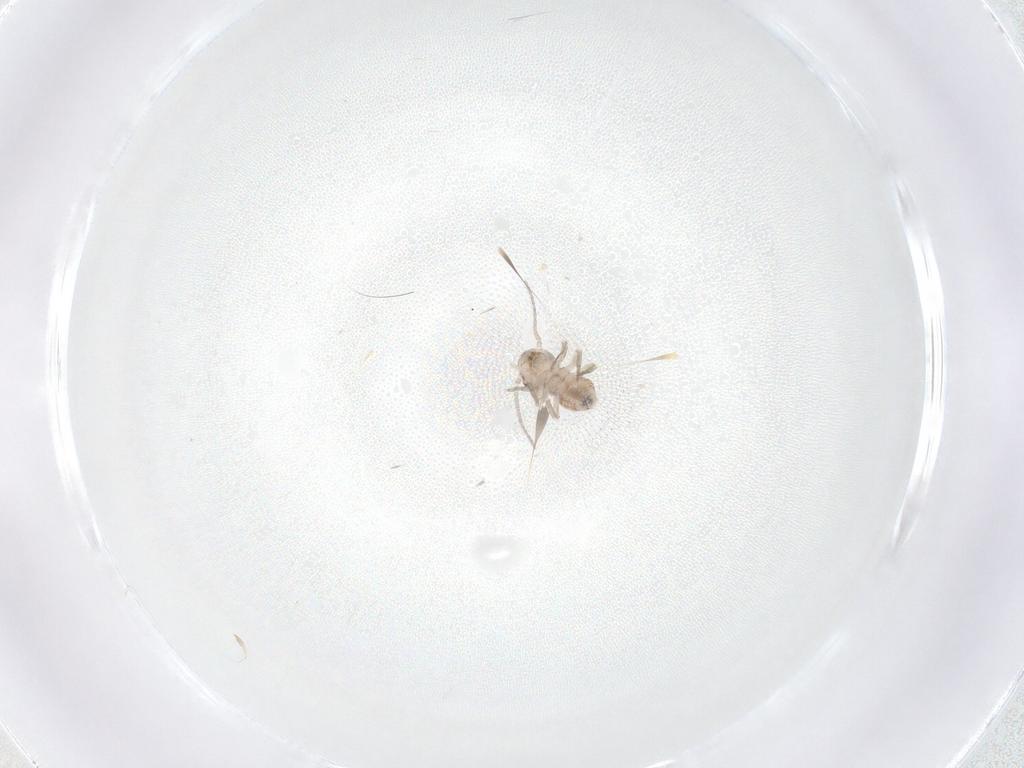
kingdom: Animalia
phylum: Arthropoda
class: Insecta
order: Psocodea
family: Myopsocidae
